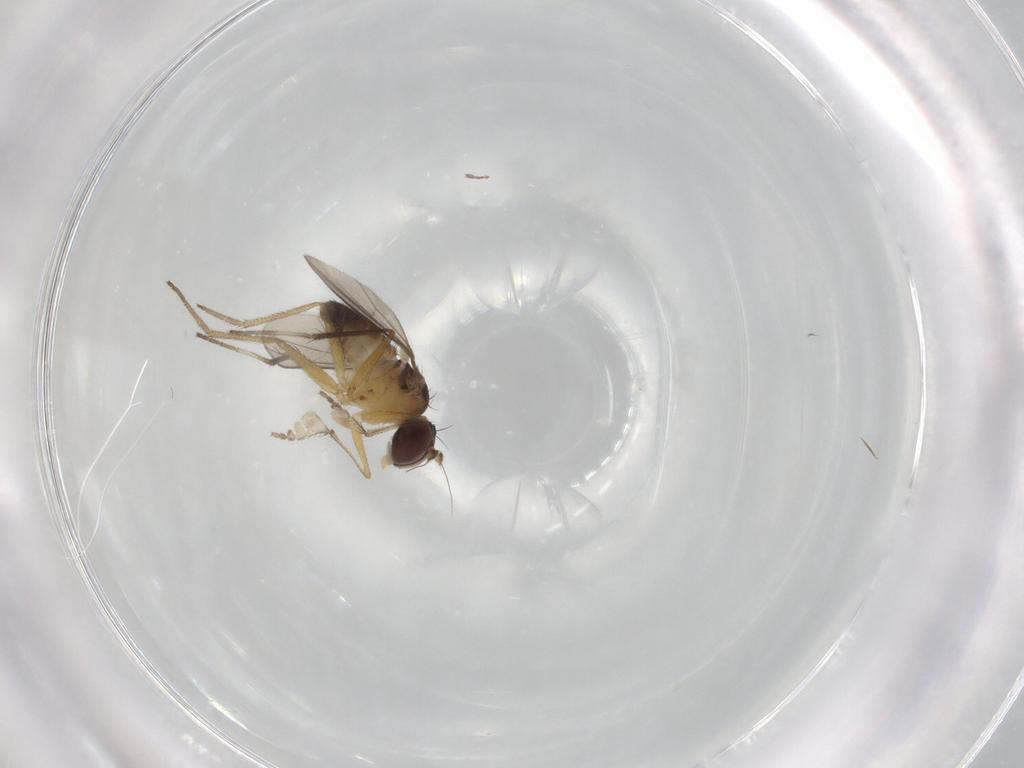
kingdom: Animalia
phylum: Arthropoda
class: Insecta
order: Diptera
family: Dolichopodidae
